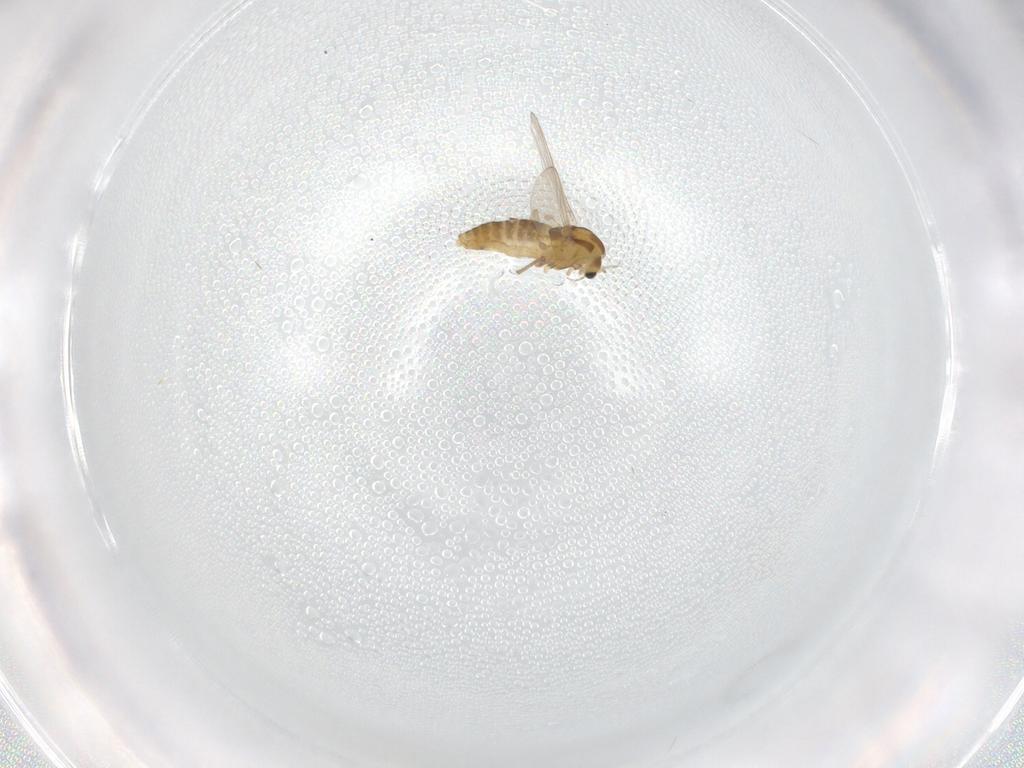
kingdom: Animalia
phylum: Arthropoda
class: Insecta
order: Diptera
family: Chironomidae
